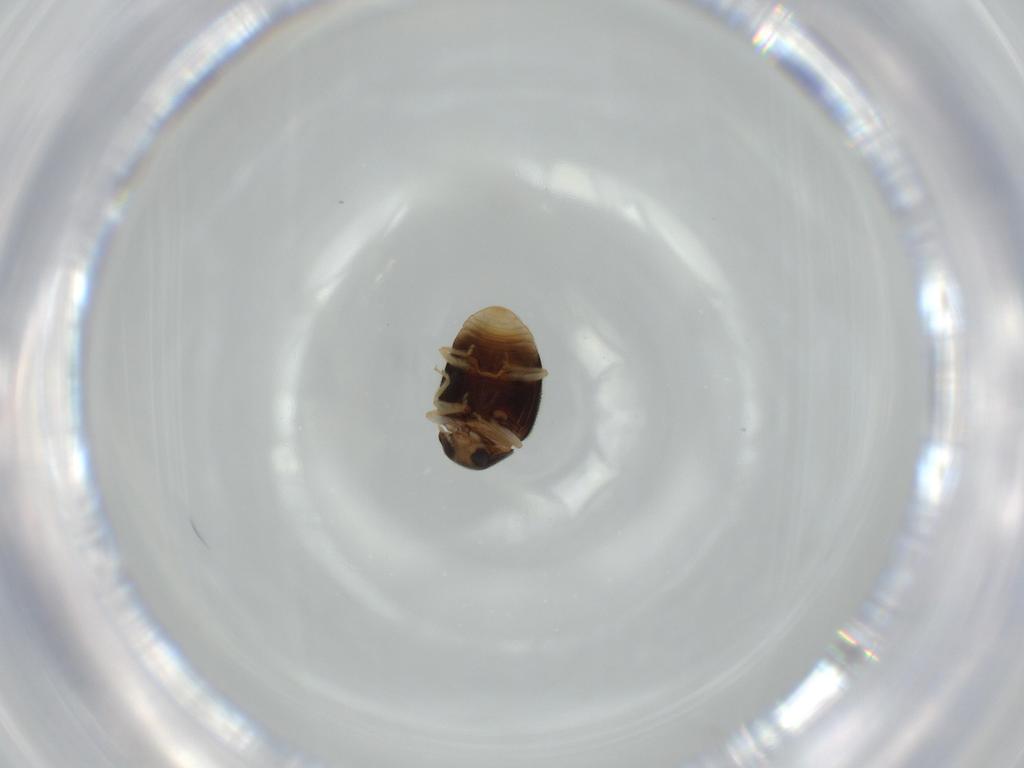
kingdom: Animalia
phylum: Arthropoda
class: Insecta
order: Coleoptera
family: Coccinellidae
